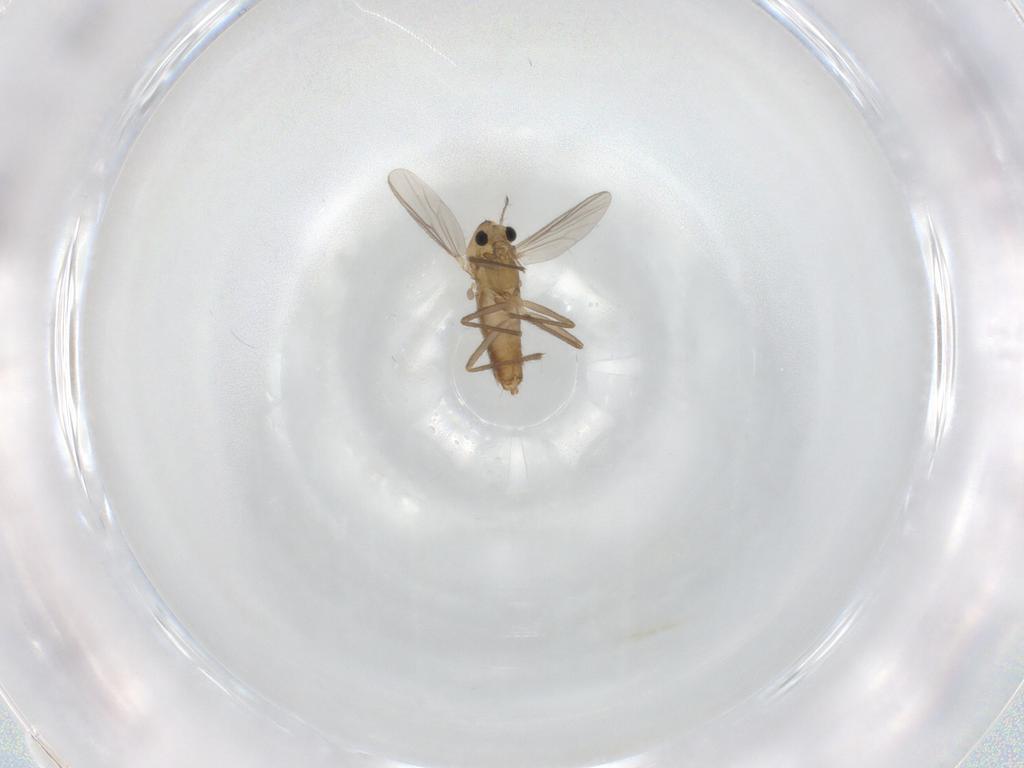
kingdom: Animalia
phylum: Arthropoda
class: Insecta
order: Diptera
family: Chironomidae
